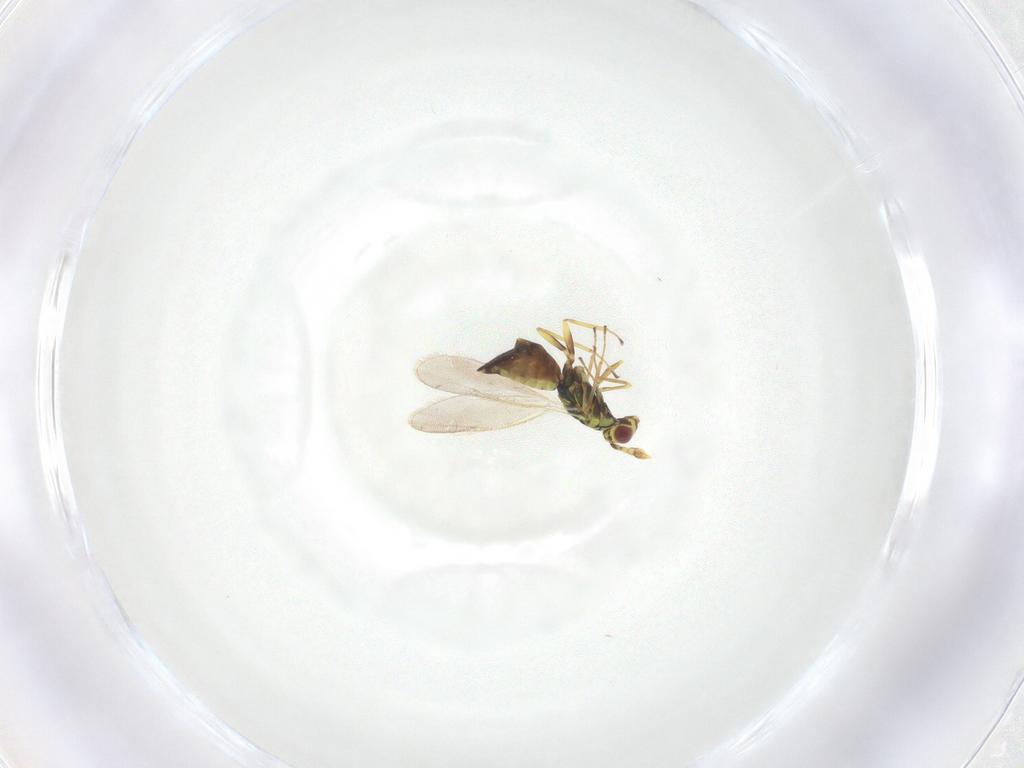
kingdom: Animalia
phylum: Arthropoda
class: Insecta
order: Hymenoptera
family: Eulophidae
